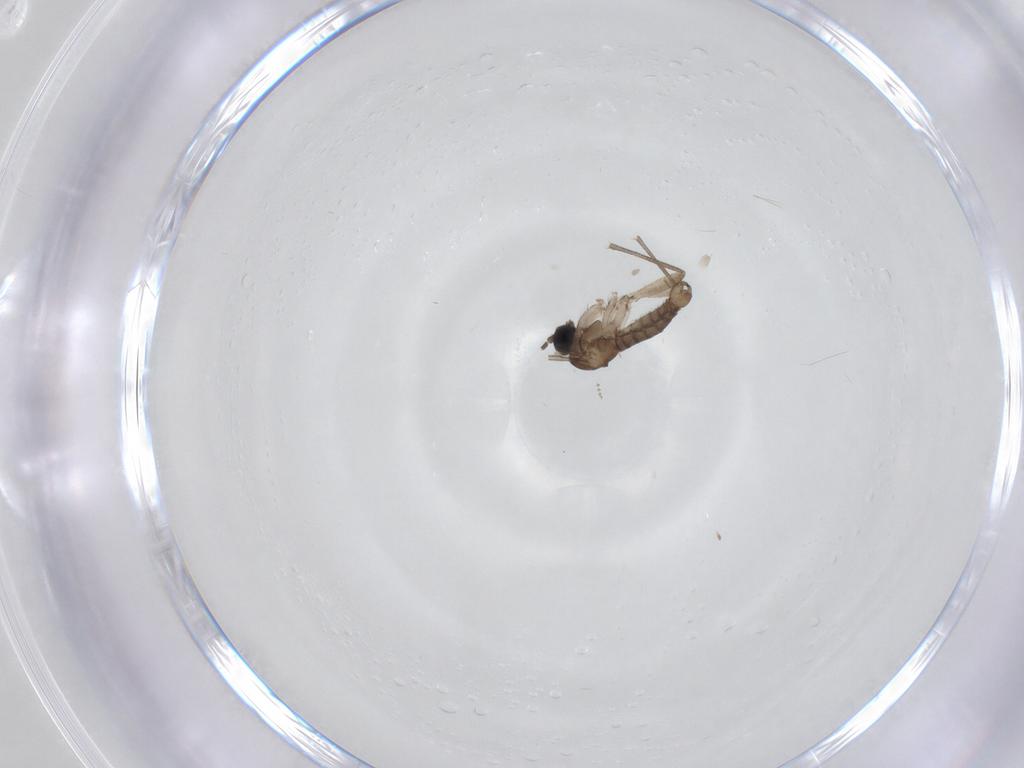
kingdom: Animalia
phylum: Arthropoda
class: Insecta
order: Diptera
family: Sciaridae
